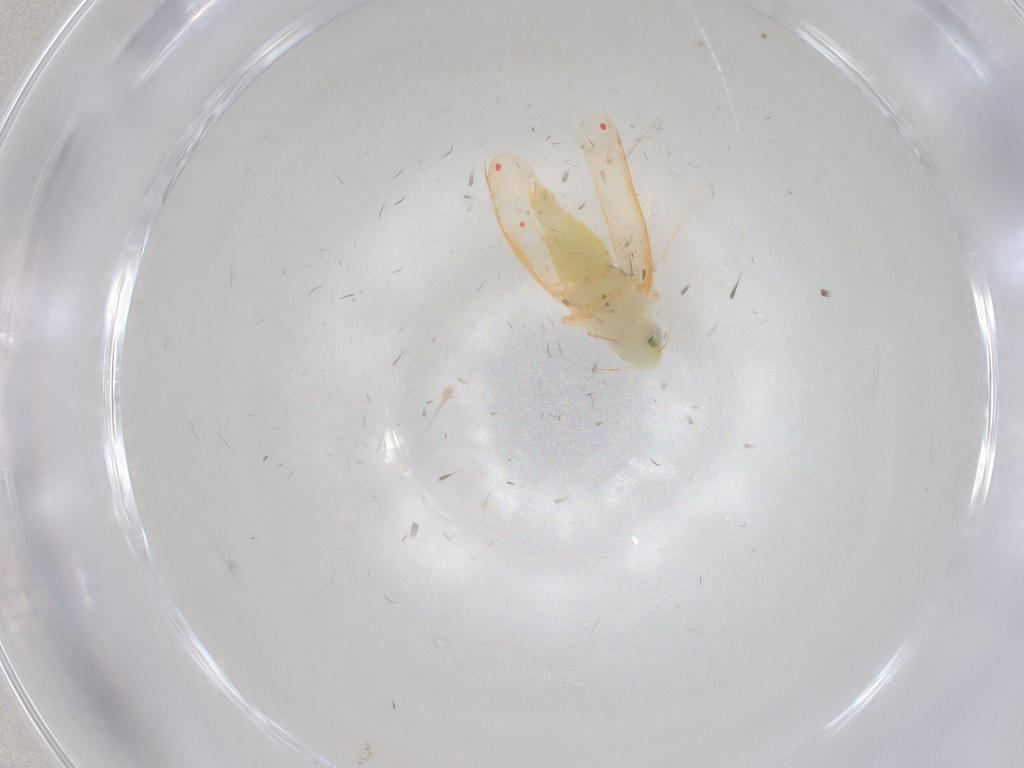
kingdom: Animalia
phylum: Arthropoda
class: Insecta
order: Hemiptera
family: Cicadellidae
